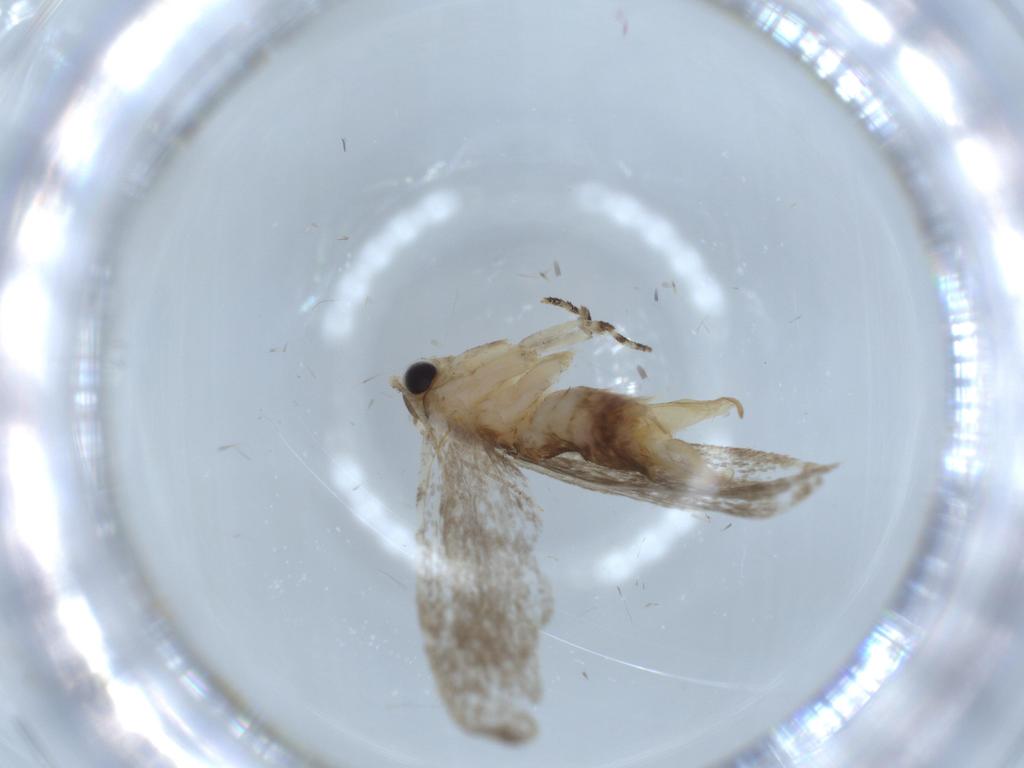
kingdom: Animalia
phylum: Arthropoda
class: Insecta
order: Lepidoptera
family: Tineidae
